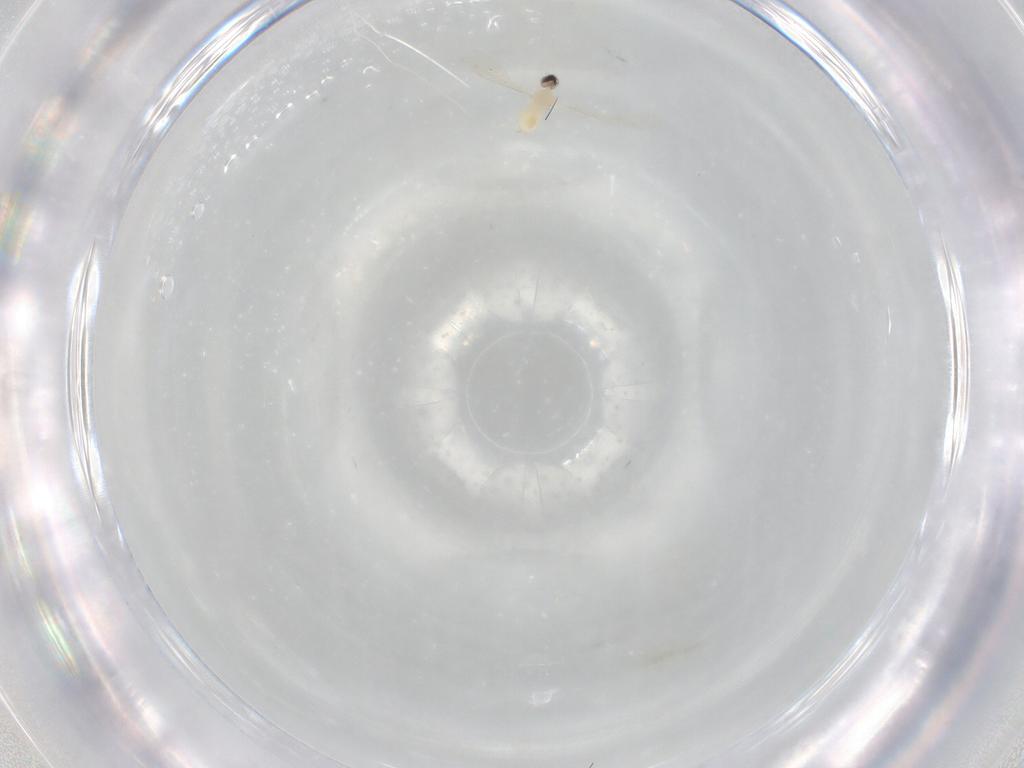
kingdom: Animalia
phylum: Arthropoda
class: Insecta
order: Diptera
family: Cecidomyiidae
